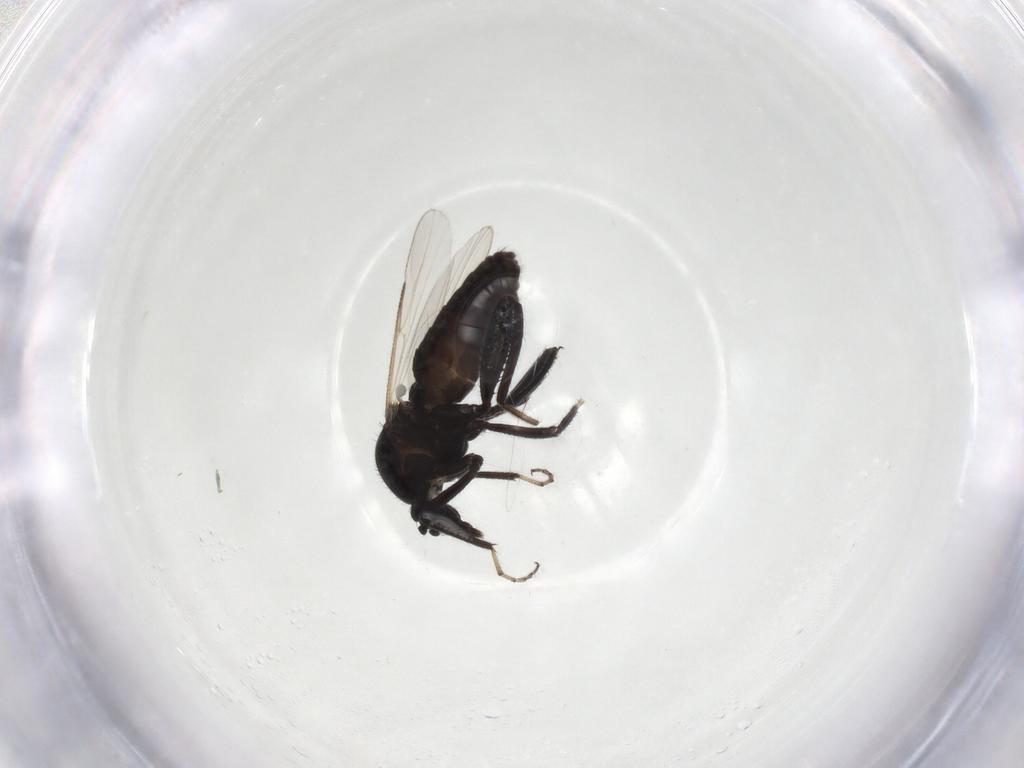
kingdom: Animalia
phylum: Arthropoda
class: Insecta
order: Diptera
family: Ceratopogonidae
